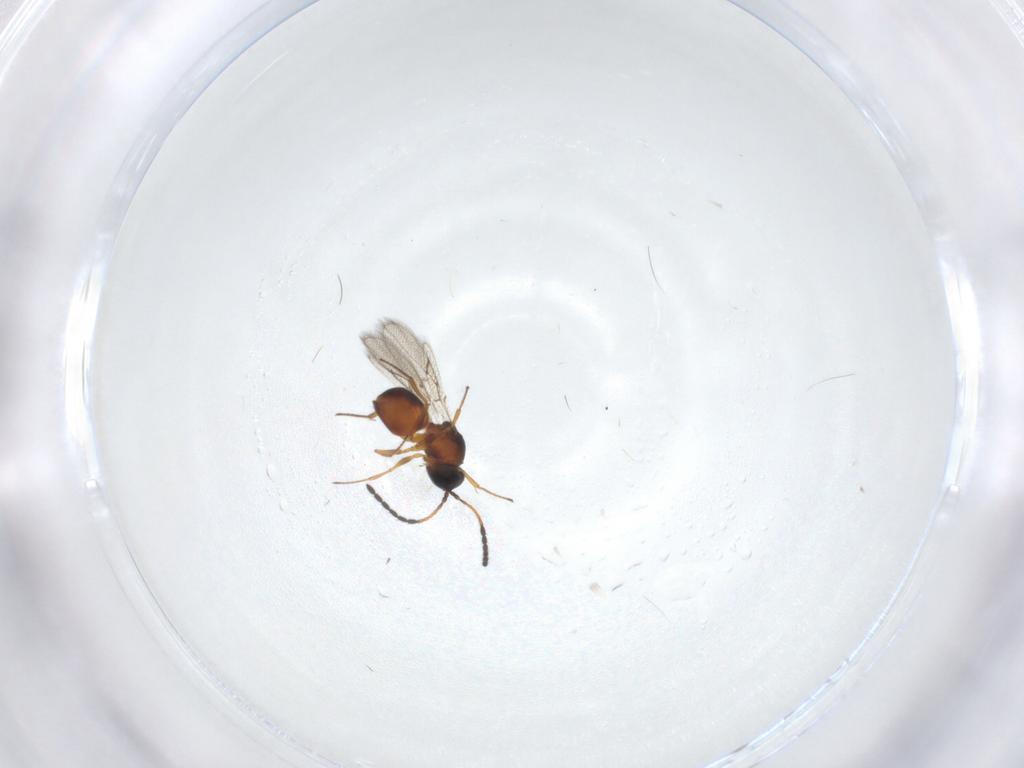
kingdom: Animalia
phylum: Arthropoda
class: Insecta
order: Hymenoptera
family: Figitidae
